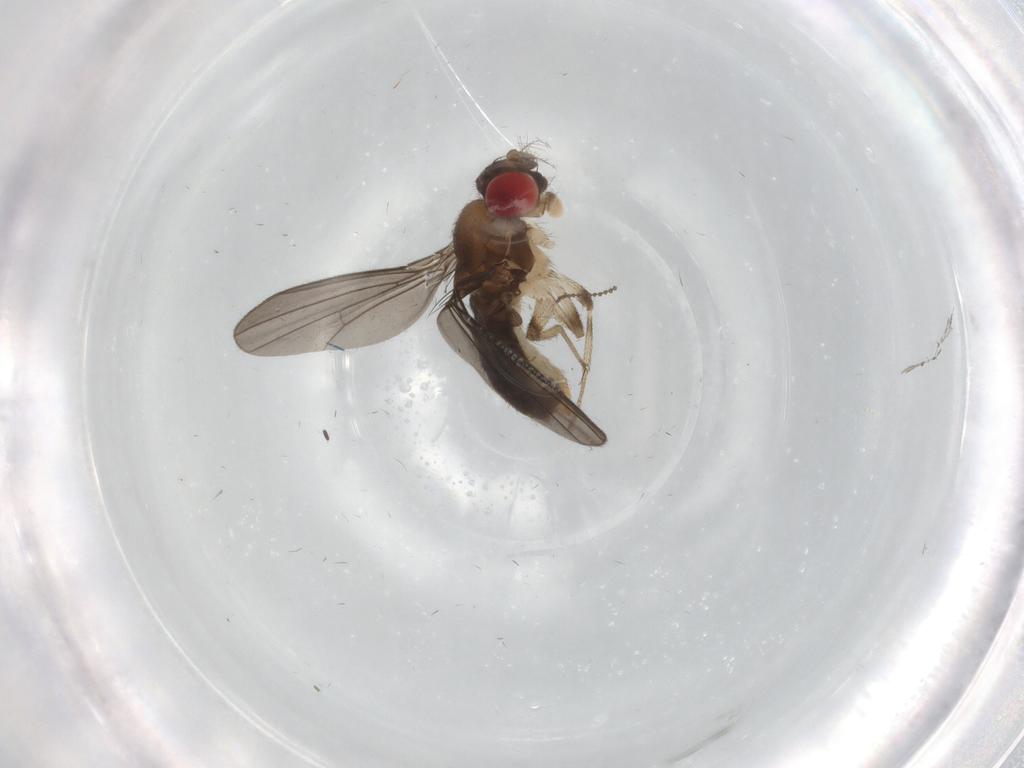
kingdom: Animalia
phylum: Arthropoda
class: Insecta
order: Diptera
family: Drosophilidae
